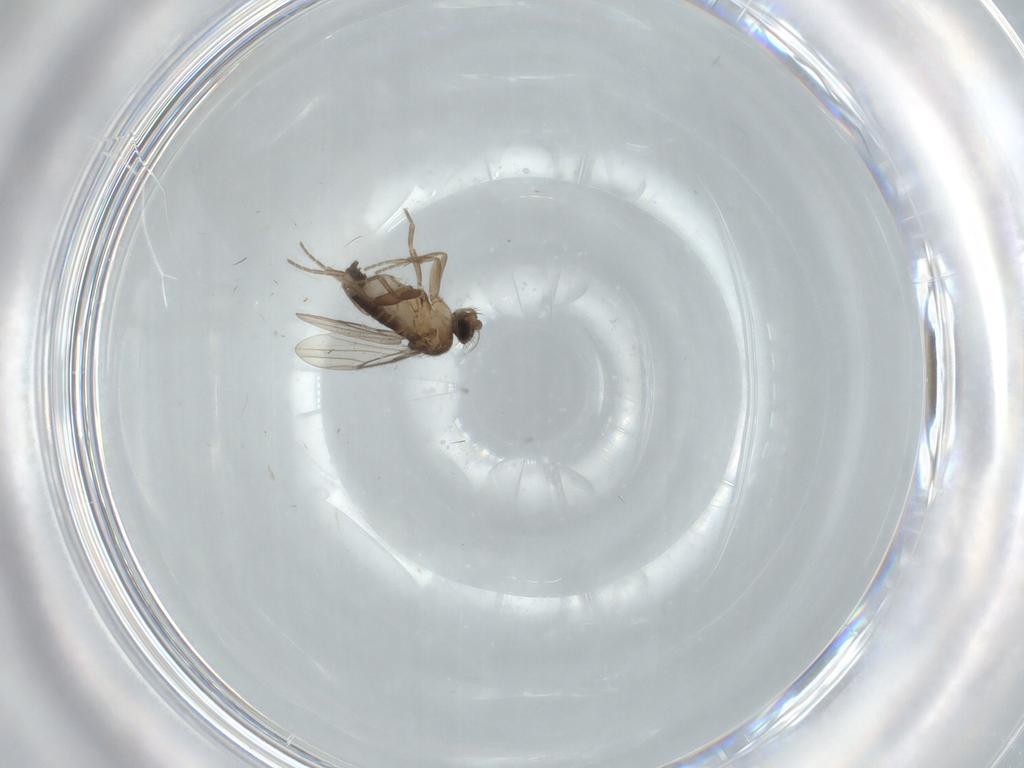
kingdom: Animalia
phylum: Arthropoda
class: Insecta
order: Diptera
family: Phoridae
